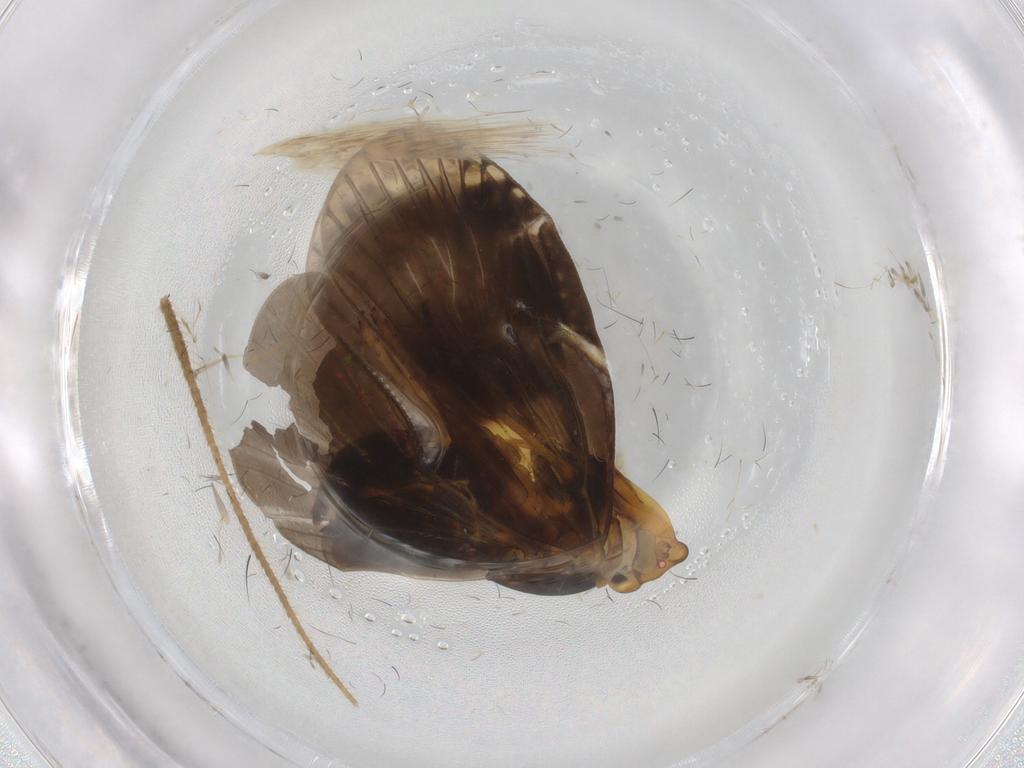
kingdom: Animalia
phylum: Arthropoda
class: Insecta
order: Hemiptera
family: Cixiidae
